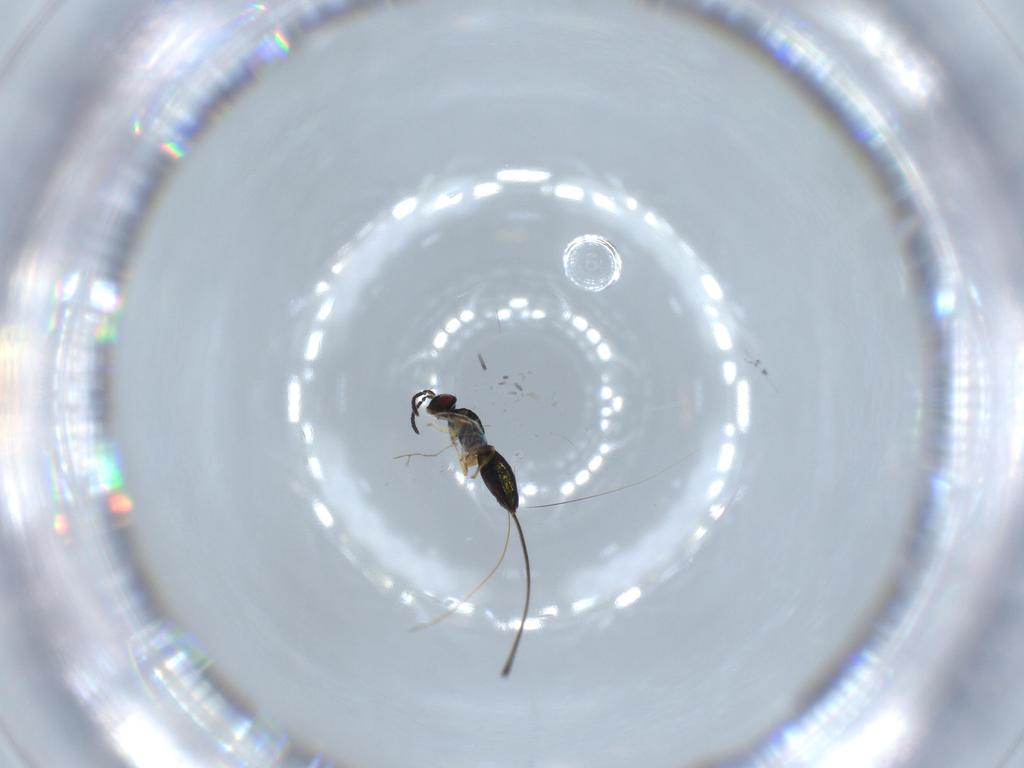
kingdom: Animalia
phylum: Arthropoda
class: Insecta
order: Hymenoptera
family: Agaonidae
